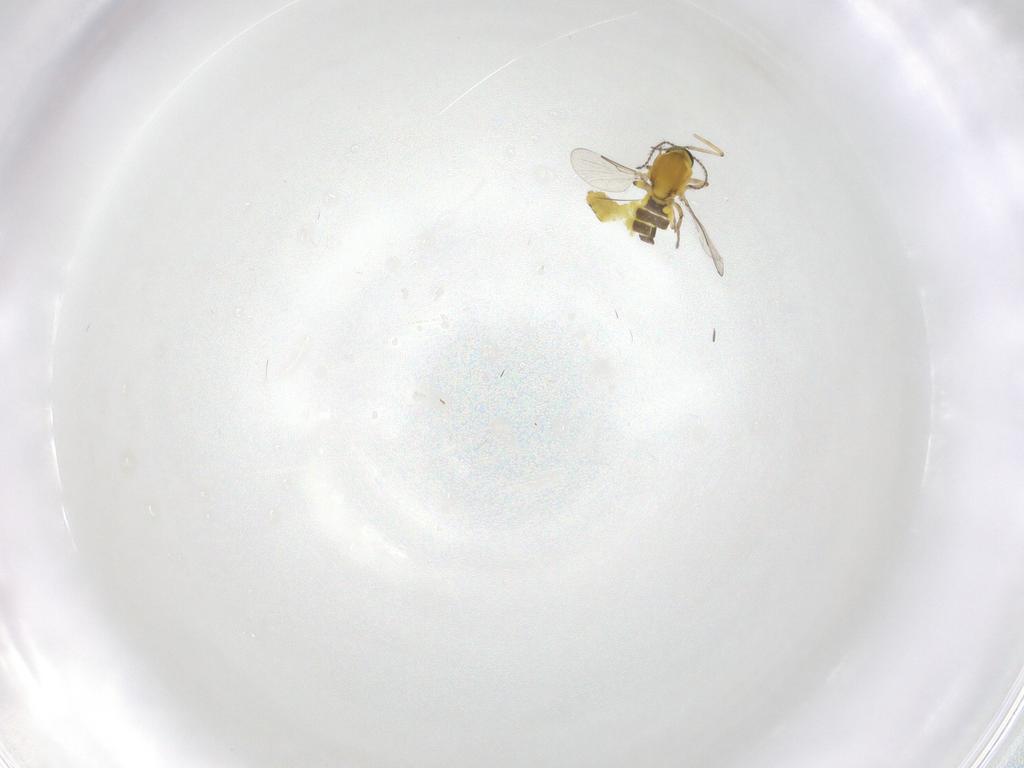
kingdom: Animalia
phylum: Arthropoda
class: Insecta
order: Diptera
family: Ceratopogonidae
